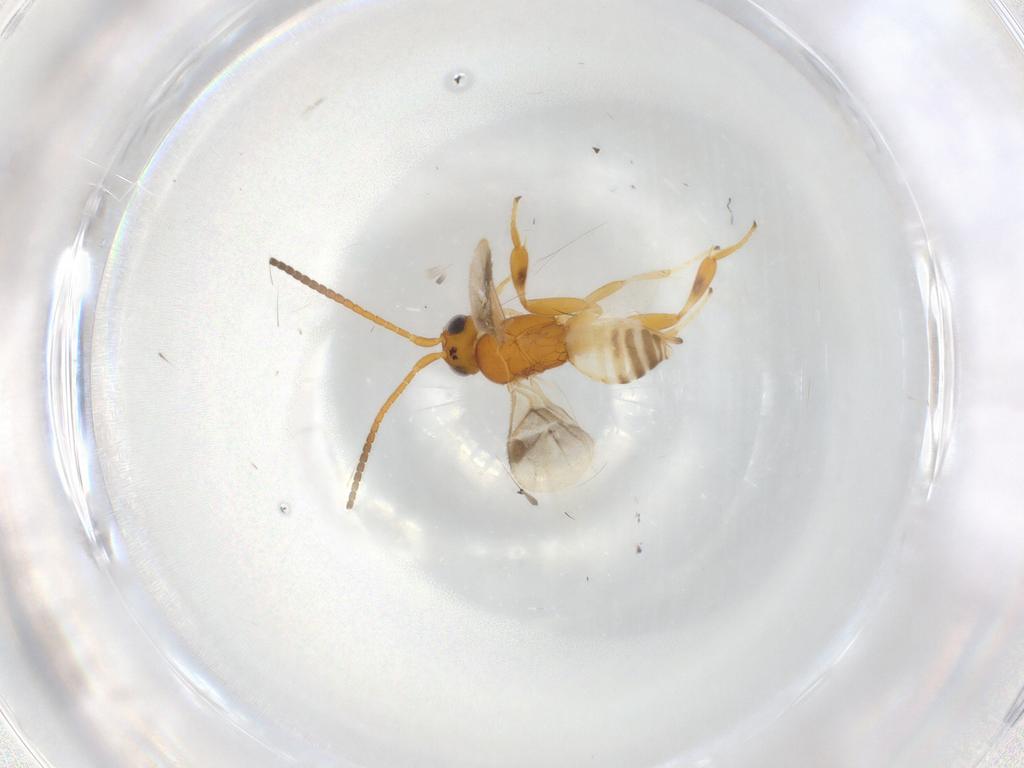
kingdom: Animalia
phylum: Arthropoda
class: Insecta
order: Hymenoptera
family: Braconidae
